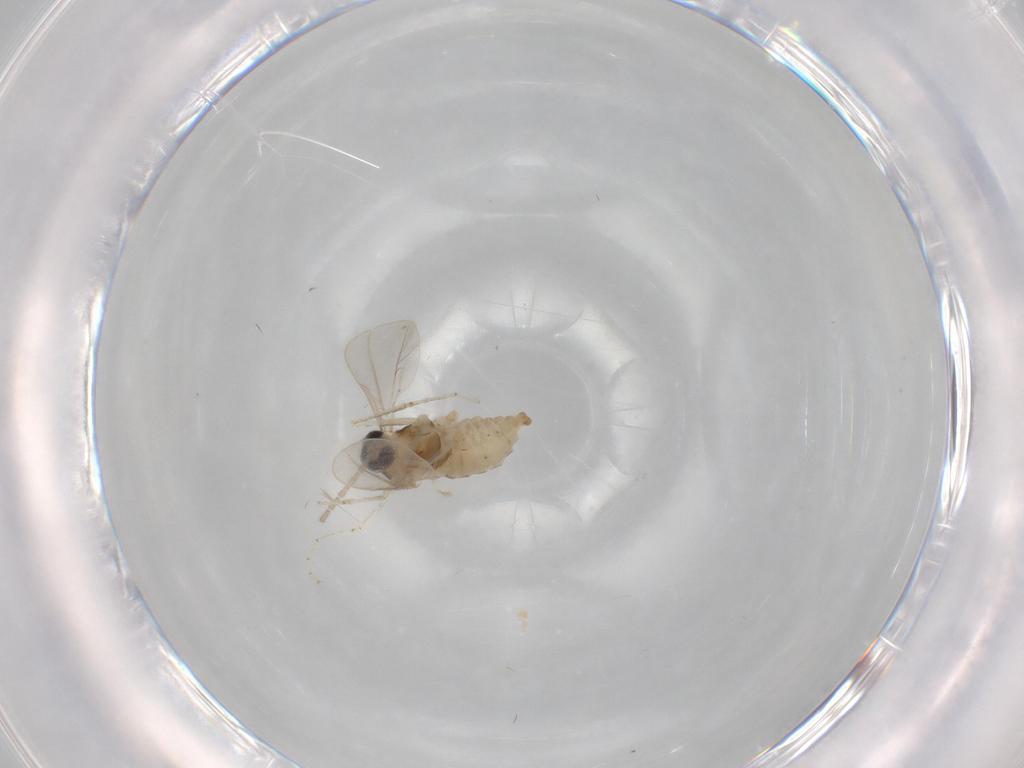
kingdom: Animalia
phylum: Arthropoda
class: Insecta
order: Diptera
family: Cecidomyiidae
